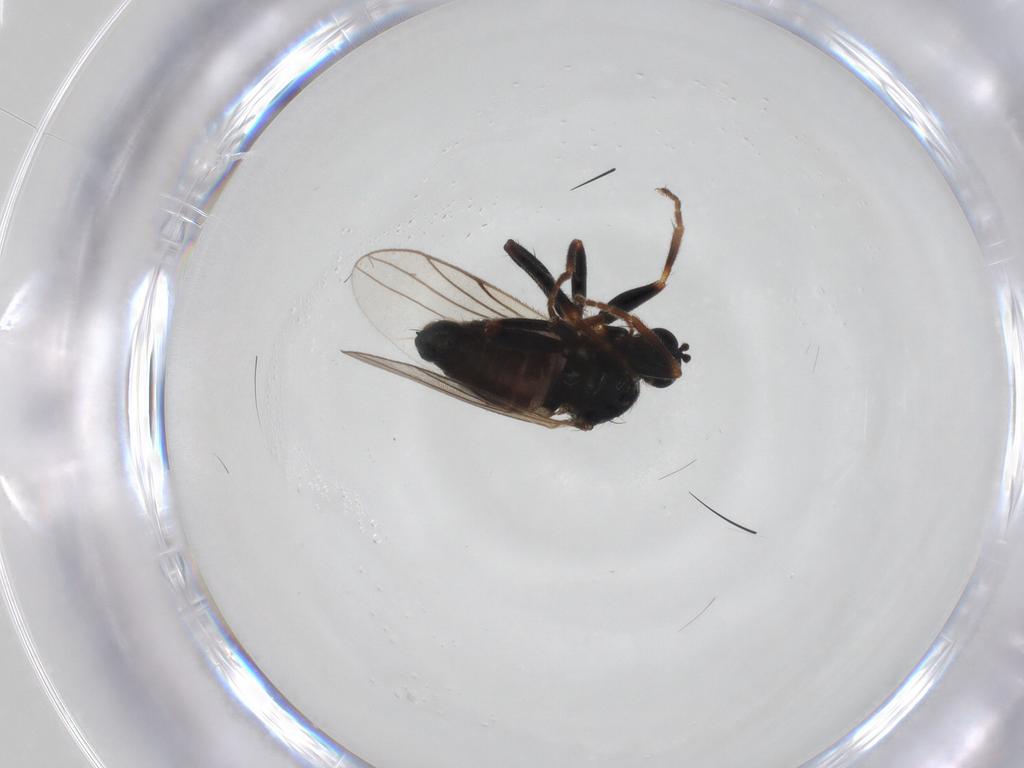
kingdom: Animalia
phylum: Arthropoda
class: Insecta
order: Diptera
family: Hybotidae
